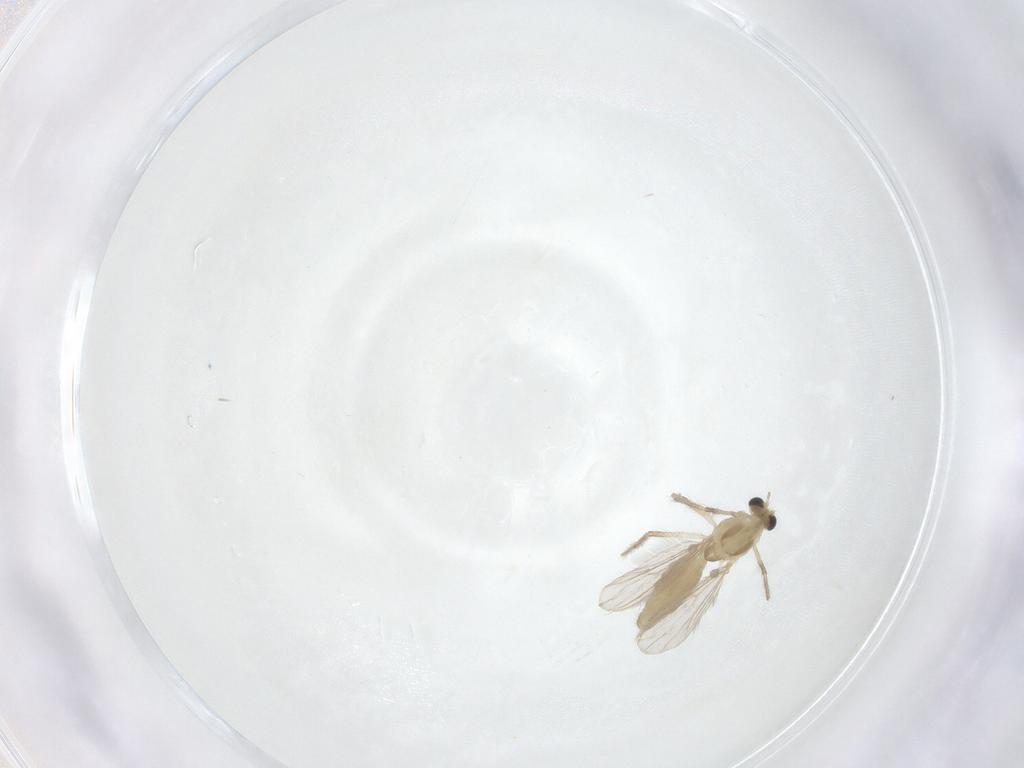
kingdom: Animalia
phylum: Arthropoda
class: Insecta
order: Diptera
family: Chironomidae
